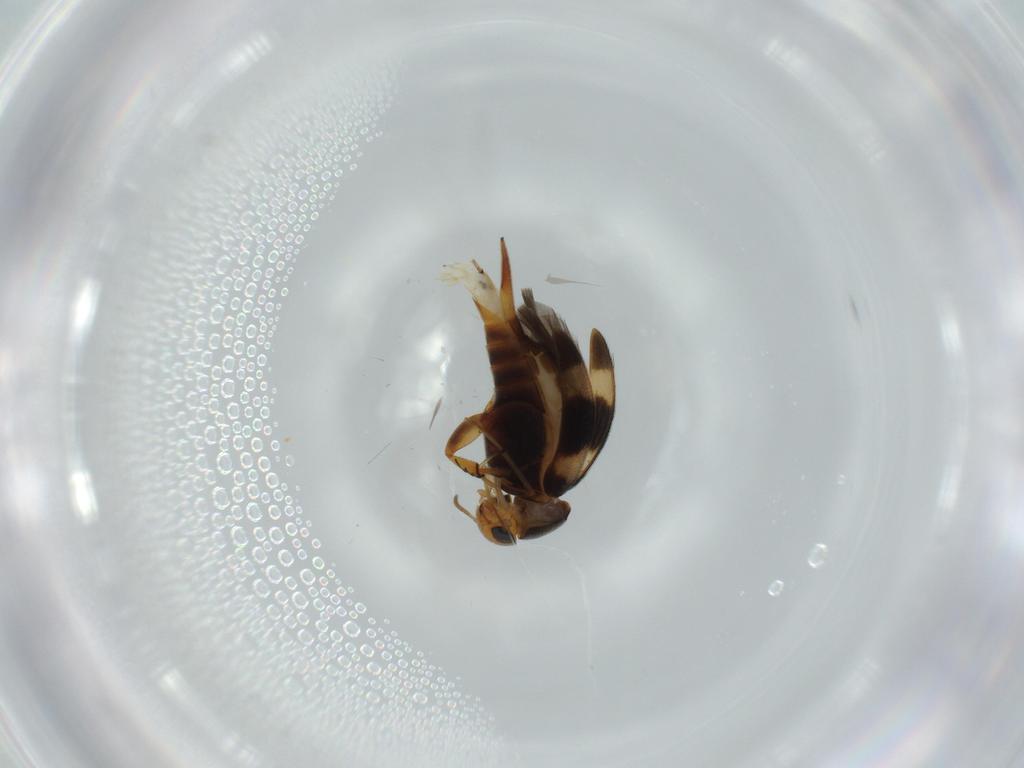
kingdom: Animalia
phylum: Arthropoda
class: Insecta
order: Coleoptera
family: Mordellidae
